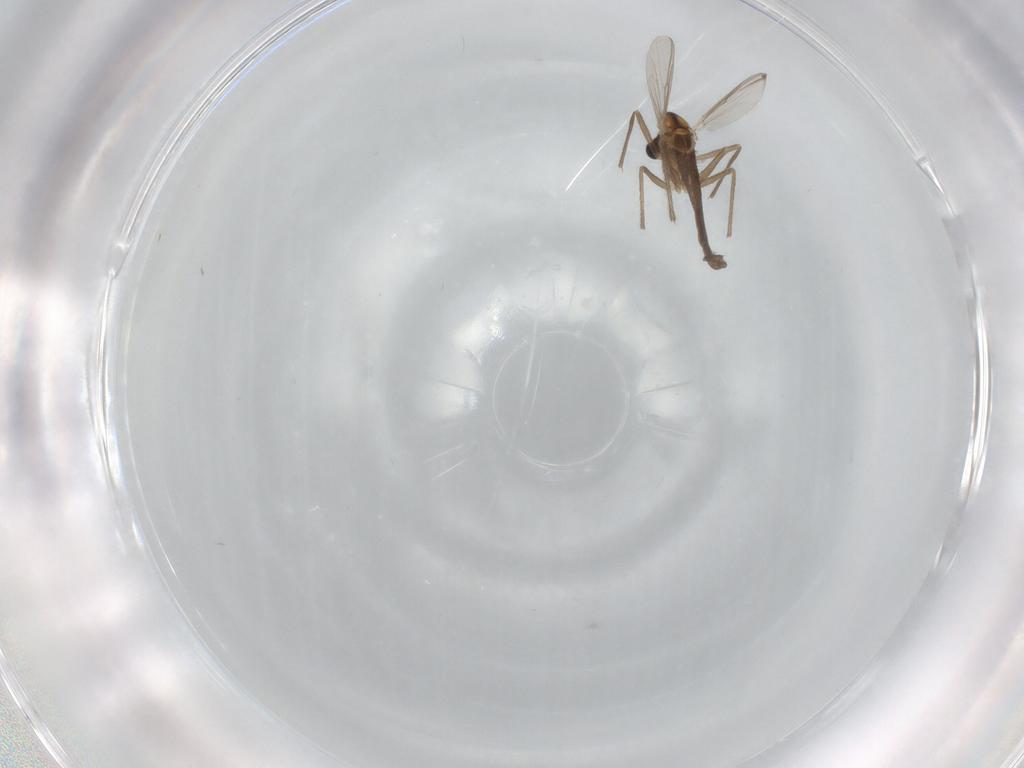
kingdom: Animalia
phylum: Arthropoda
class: Insecta
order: Diptera
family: Chironomidae
